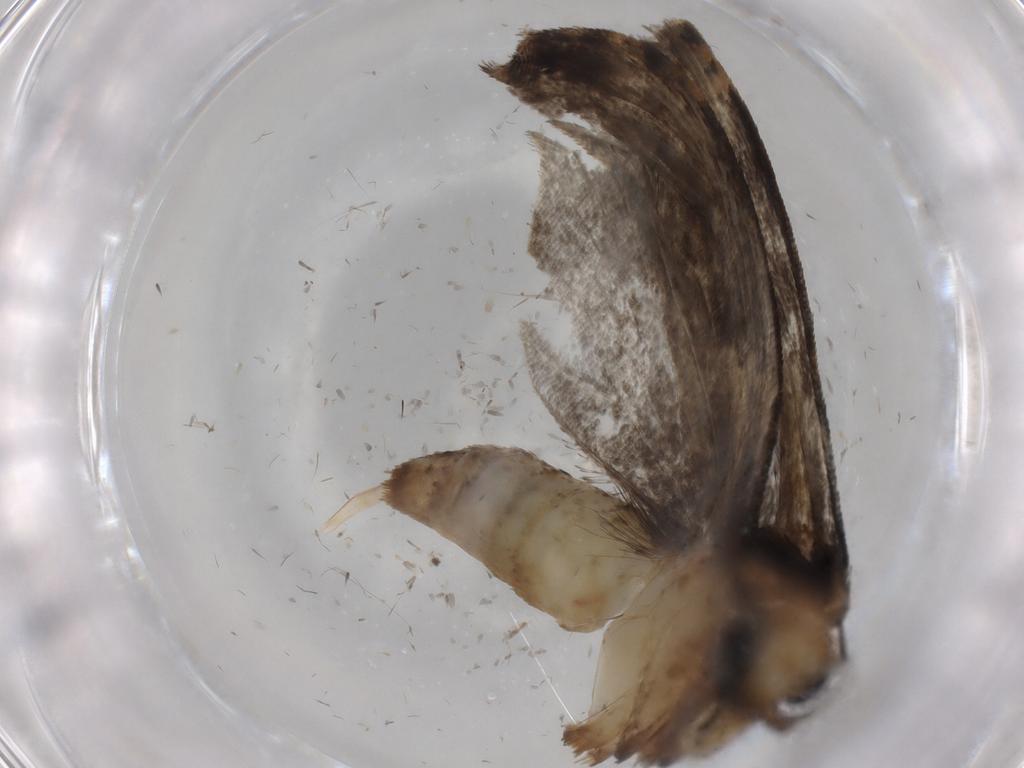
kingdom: Animalia
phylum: Arthropoda
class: Insecta
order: Lepidoptera
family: Tineidae
